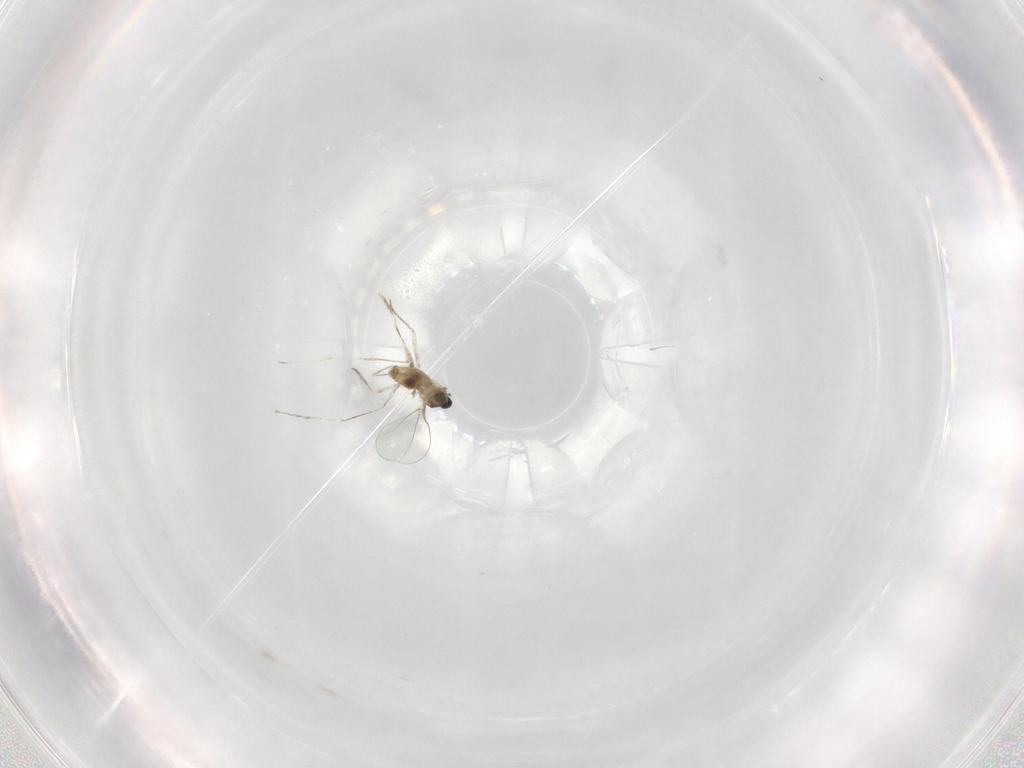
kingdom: Animalia
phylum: Arthropoda
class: Insecta
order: Diptera
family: Cecidomyiidae
